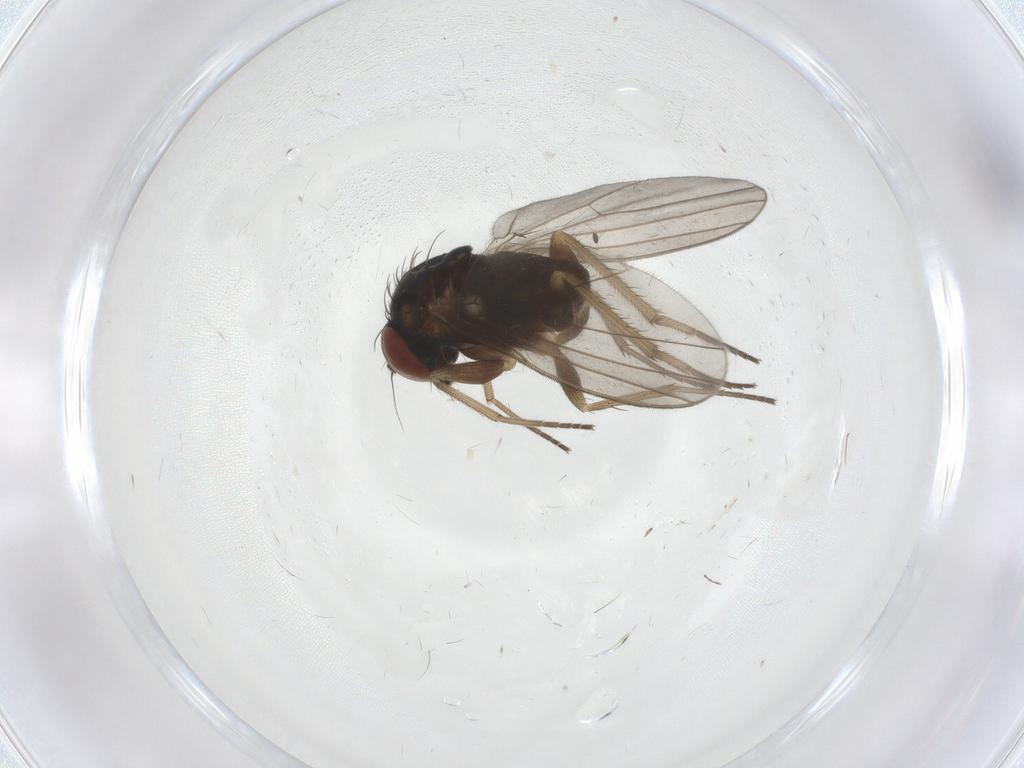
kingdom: Animalia
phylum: Arthropoda
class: Insecta
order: Diptera
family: Dolichopodidae
